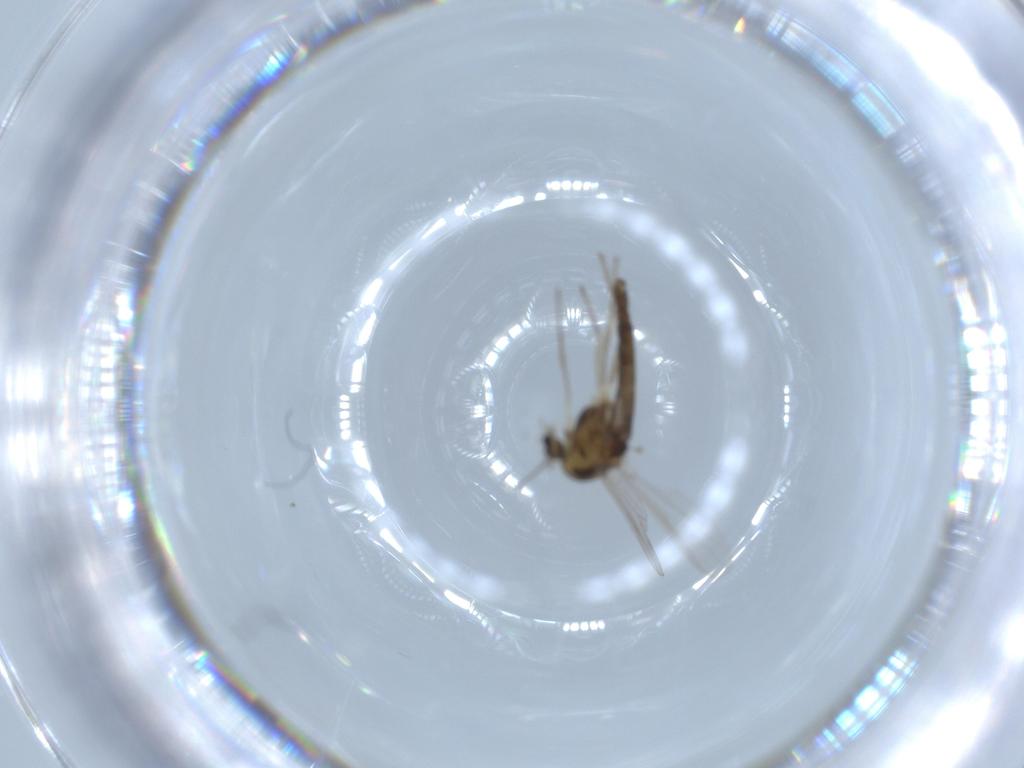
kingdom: Animalia
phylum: Arthropoda
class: Insecta
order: Diptera
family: Chironomidae
